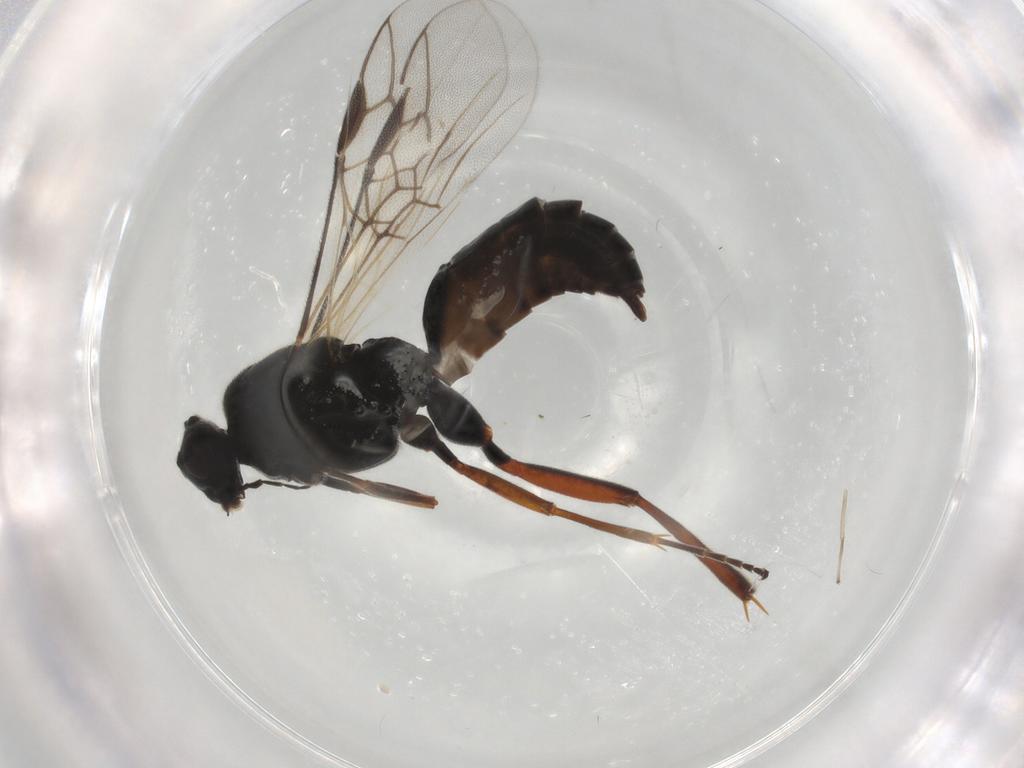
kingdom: Animalia
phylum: Arthropoda
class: Insecta
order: Hymenoptera
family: Braconidae
